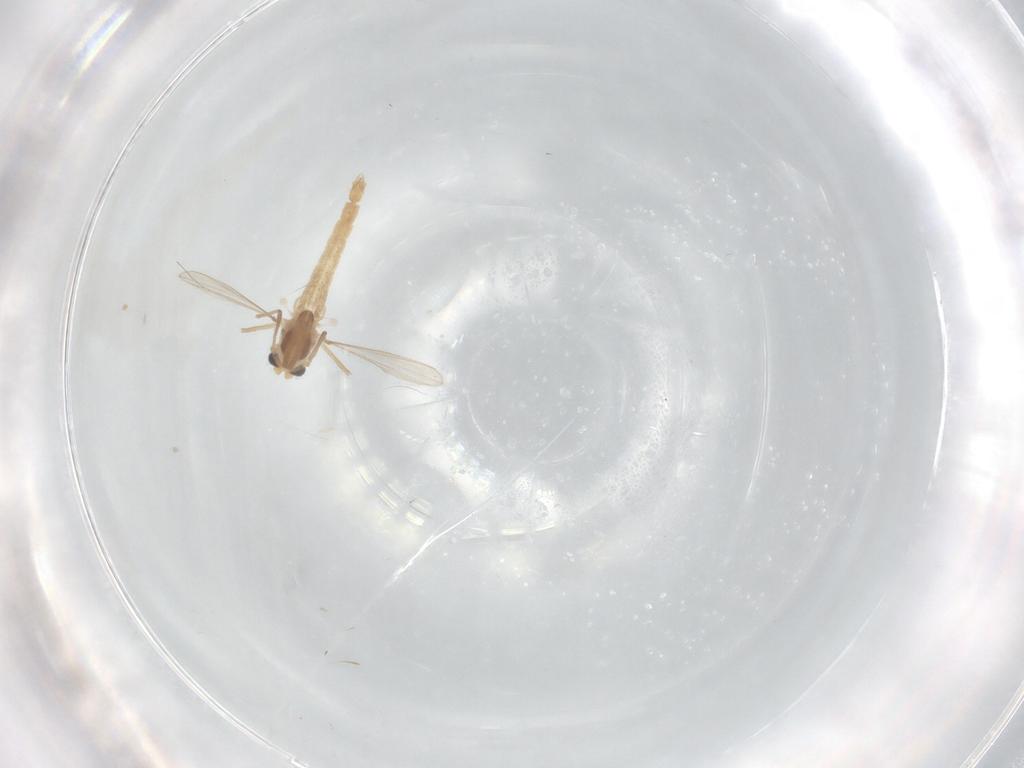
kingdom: Animalia
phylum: Arthropoda
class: Insecta
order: Diptera
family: Chironomidae
